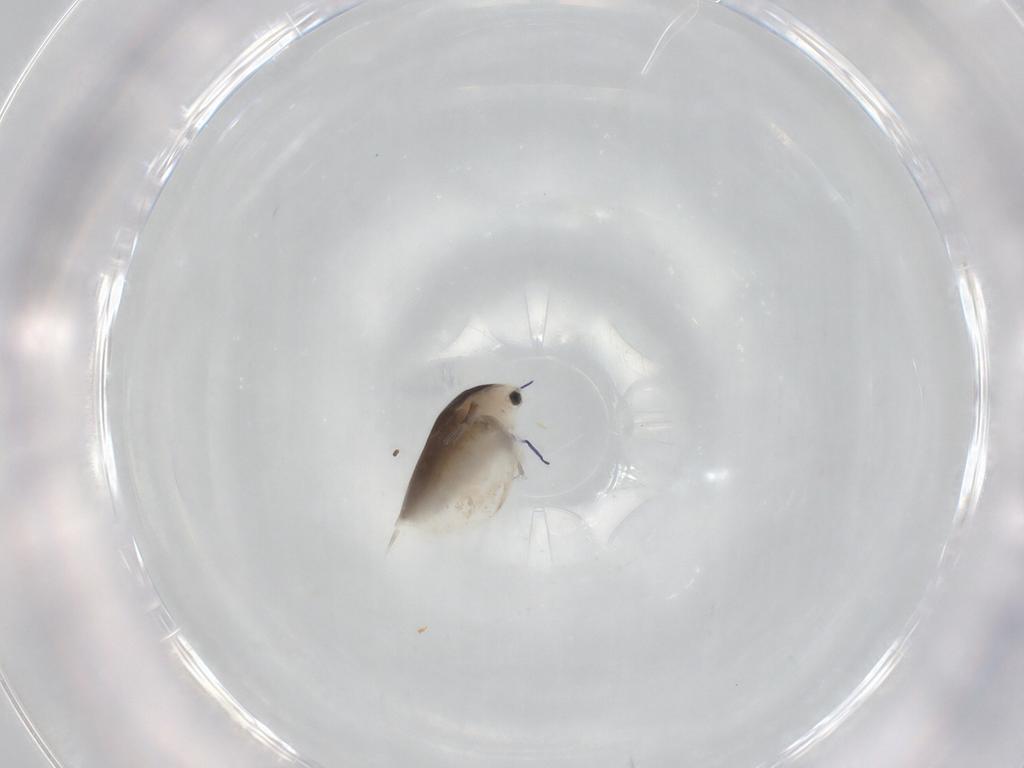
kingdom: Animalia
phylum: Arthropoda
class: Branchiopoda
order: Diplostraca
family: Daphniidae
